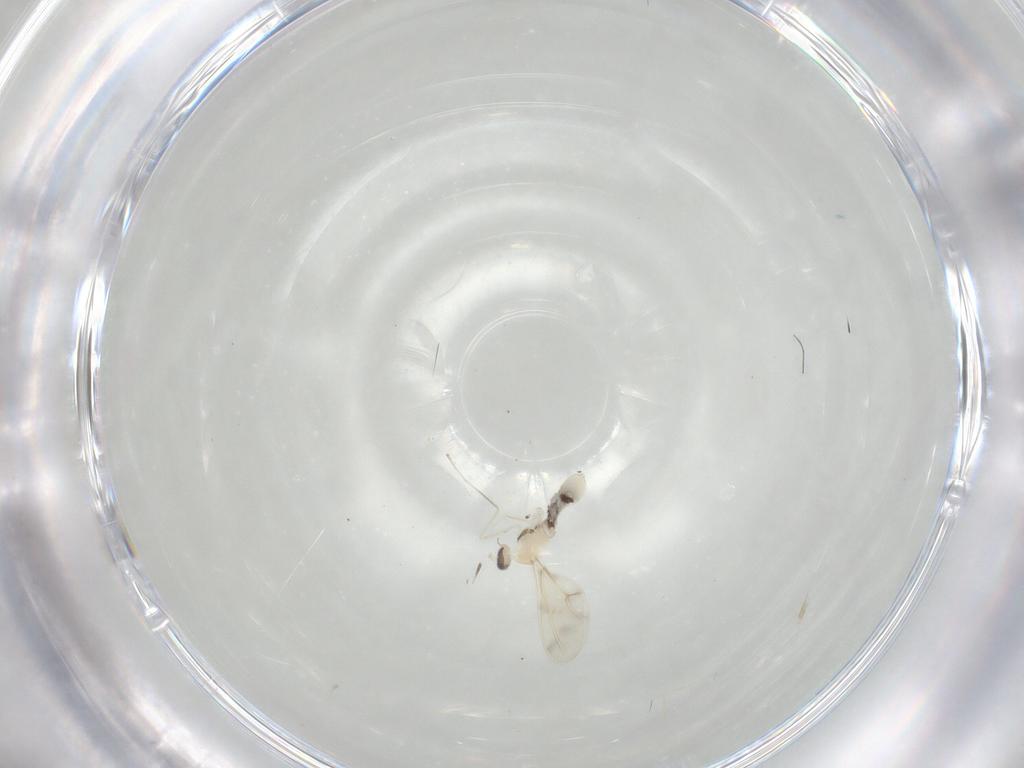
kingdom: Animalia
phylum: Arthropoda
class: Insecta
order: Diptera
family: Cecidomyiidae
